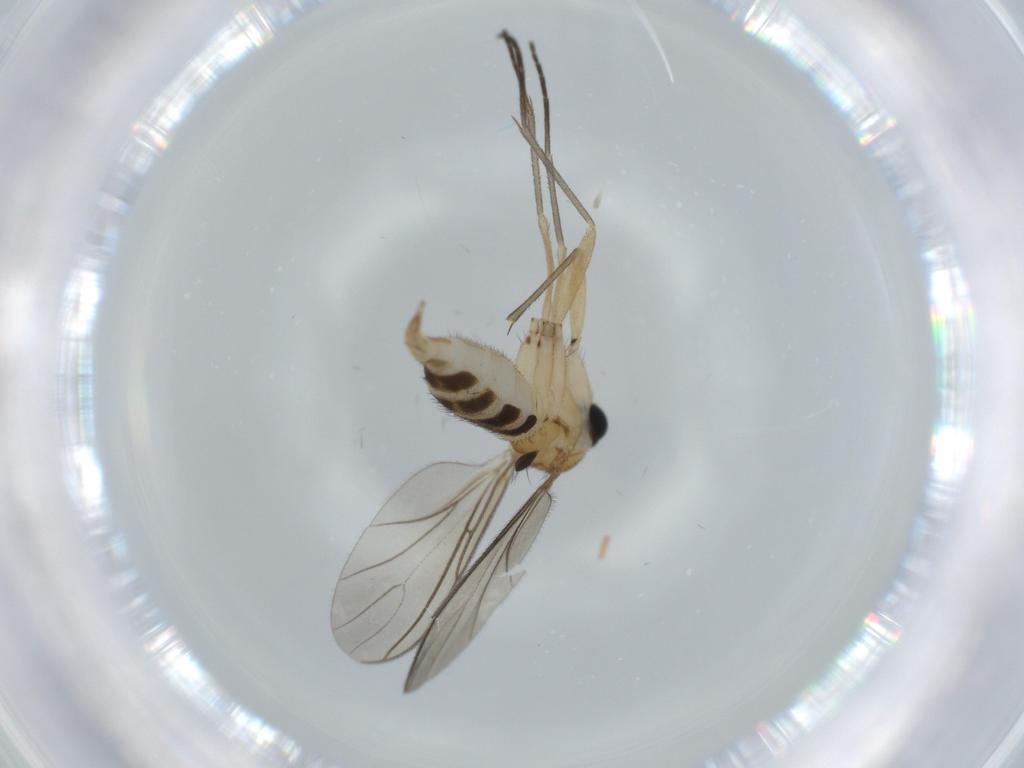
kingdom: Animalia
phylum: Arthropoda
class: Insecta
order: Diptera
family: Sciaridae
